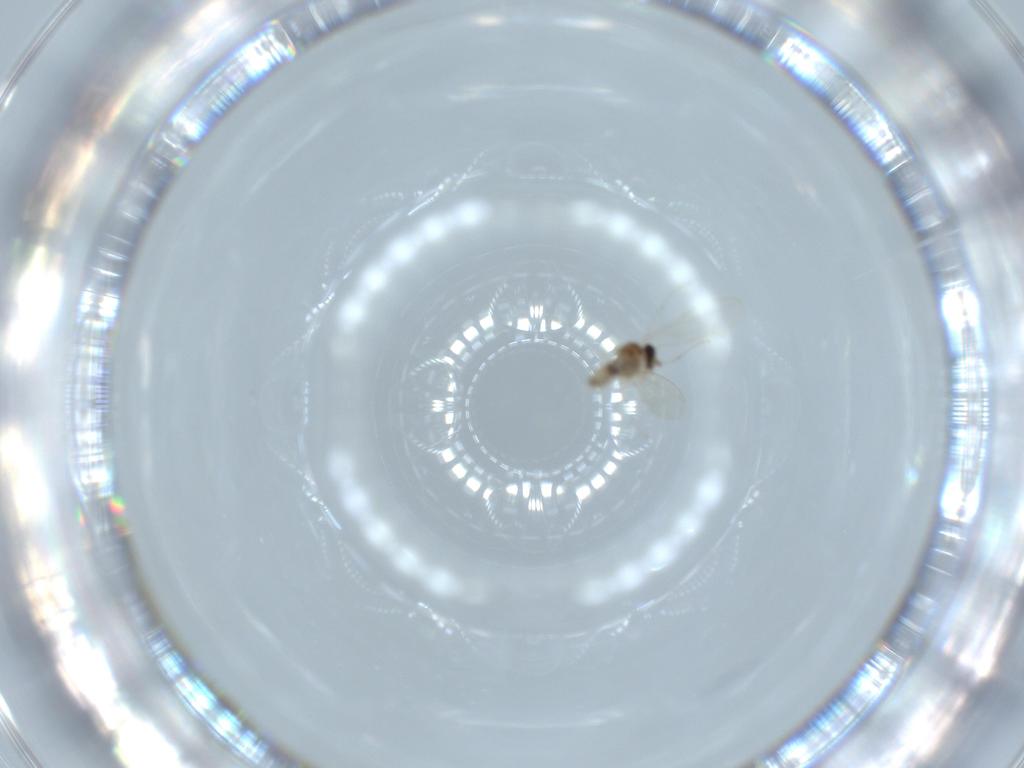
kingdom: Animalia
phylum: Arthropoda
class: Insecta
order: Diptera
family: Cecidomyiidae
